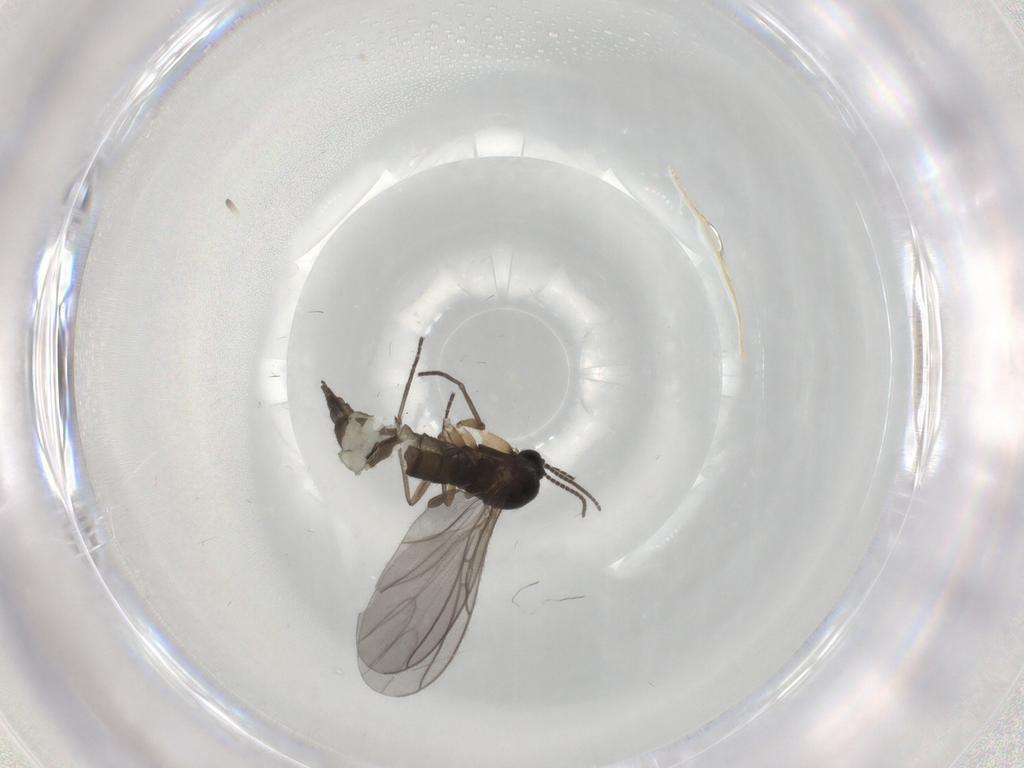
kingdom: Animalia
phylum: Arthropoda
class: Insecta
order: Diptera
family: Sciaridae
